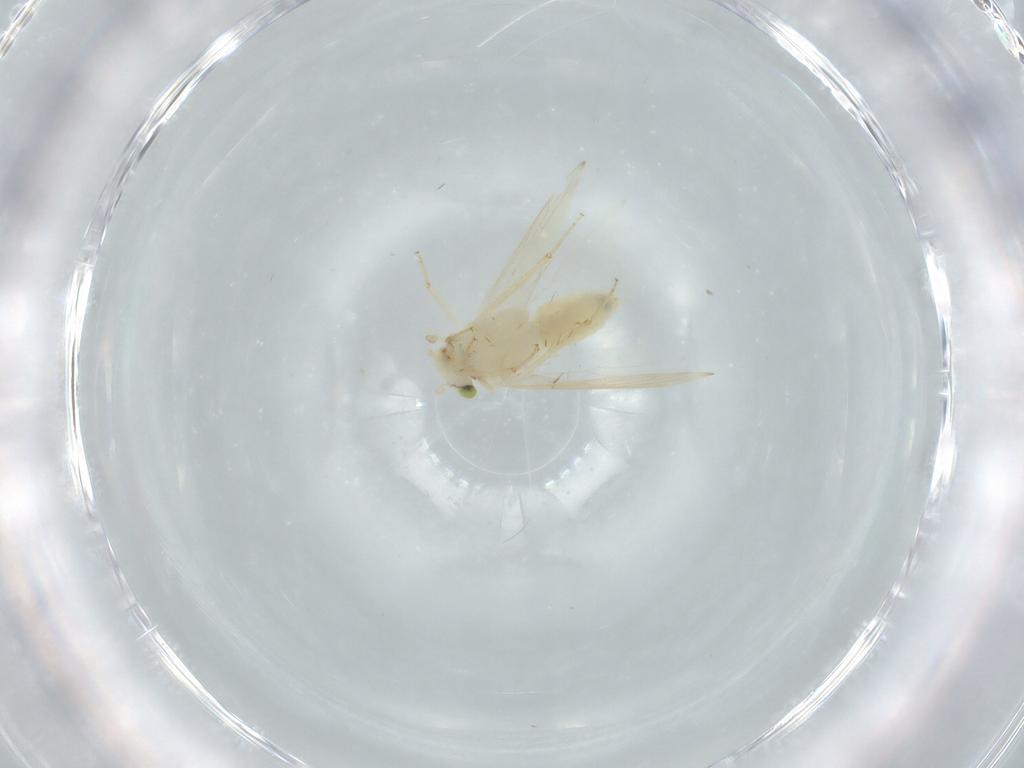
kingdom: Animalia
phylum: Arthropoda
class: Insecta
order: Psocodea
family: Lepidopsocidae
